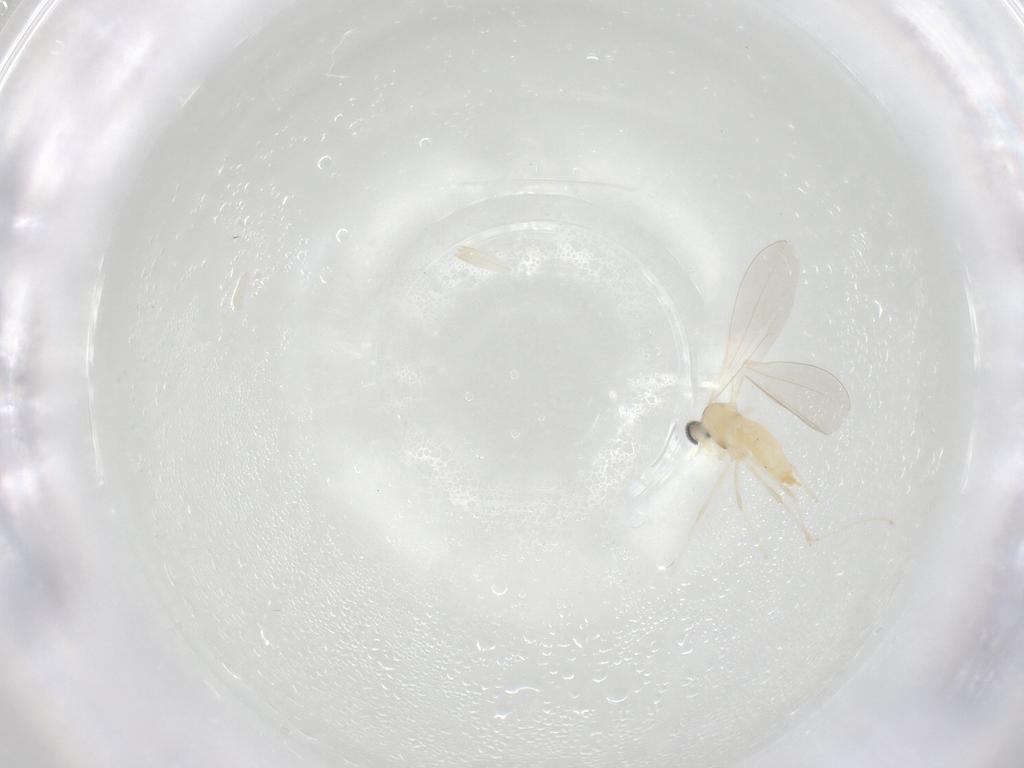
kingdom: Animalia
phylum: Arthropoda
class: Insecta
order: Diptera
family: Cecidomyiidae
